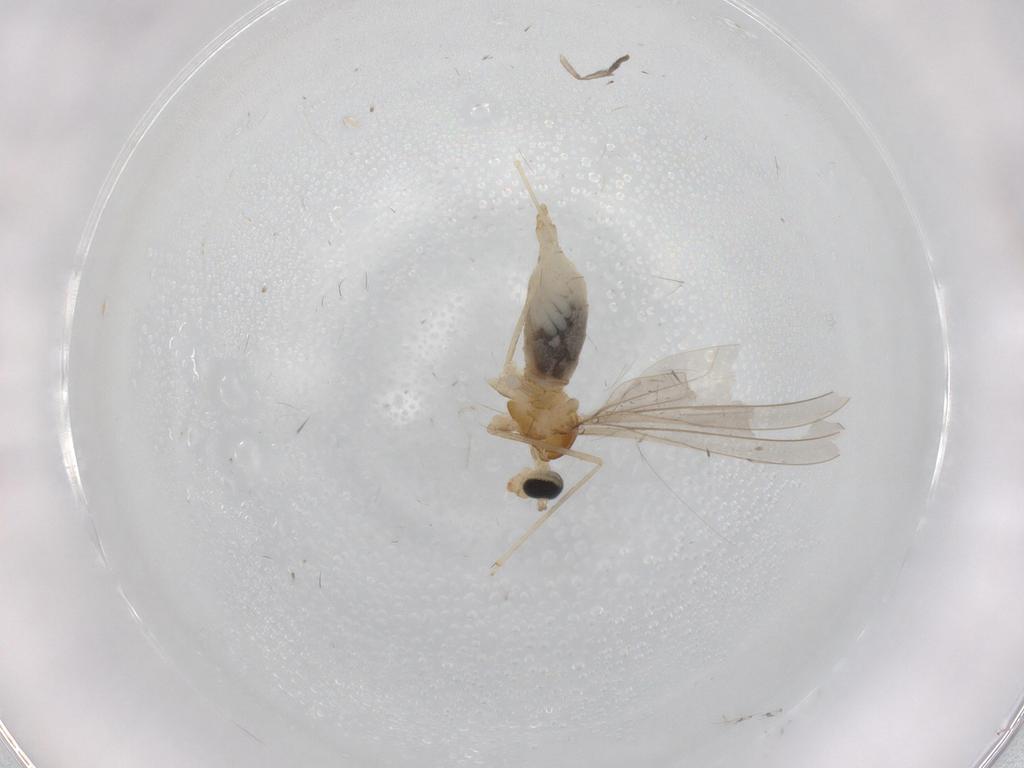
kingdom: Animalia
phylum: Arthropoda
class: Insecta
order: Diptera
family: Cecidomyiidae
